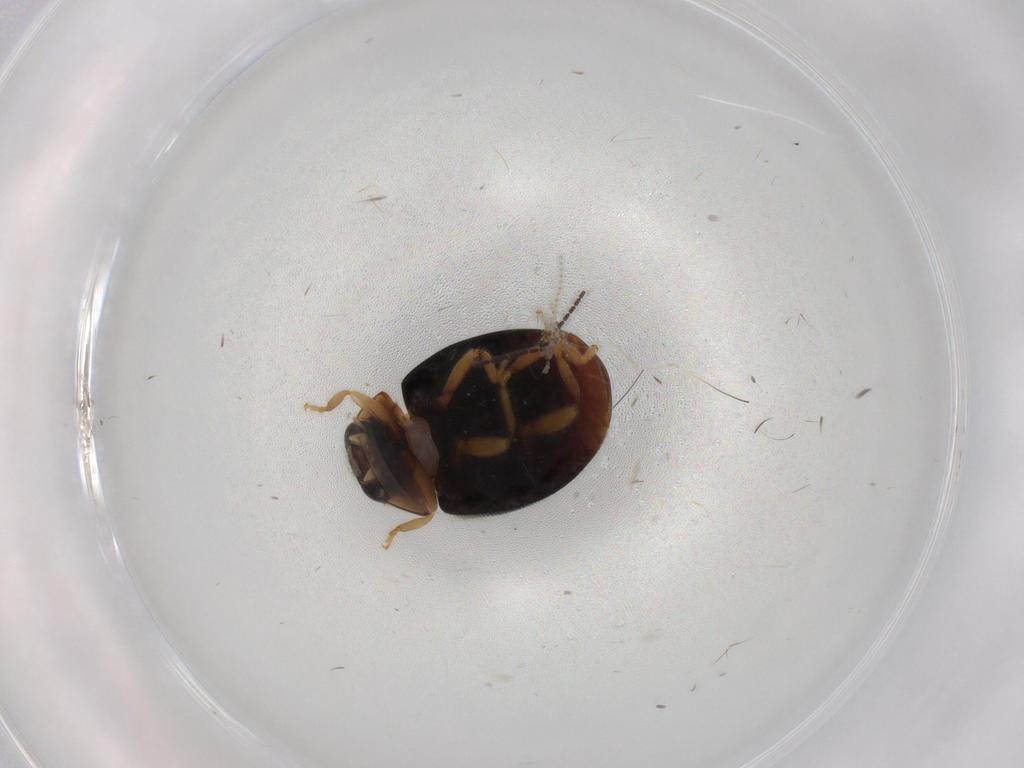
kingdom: Animalia
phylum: Arthropoda
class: Insecta
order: Coleoptera
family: Coccinellidae
